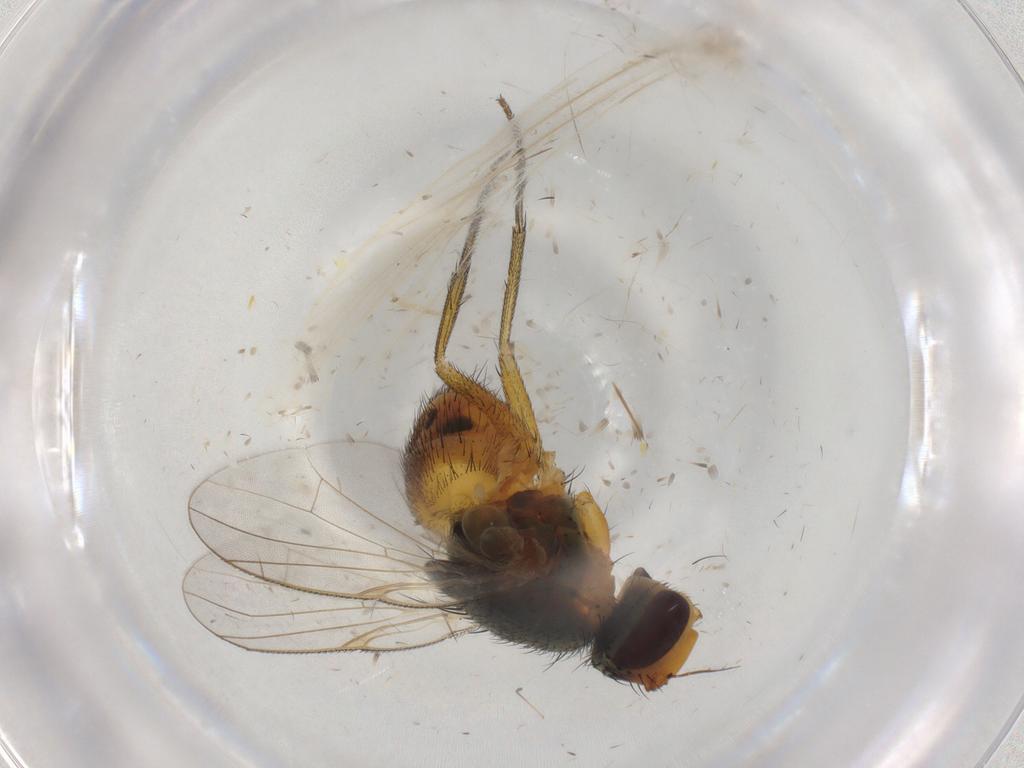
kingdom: Animalia
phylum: Arthropoda
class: Insecta
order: Diptera
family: Muscidae
